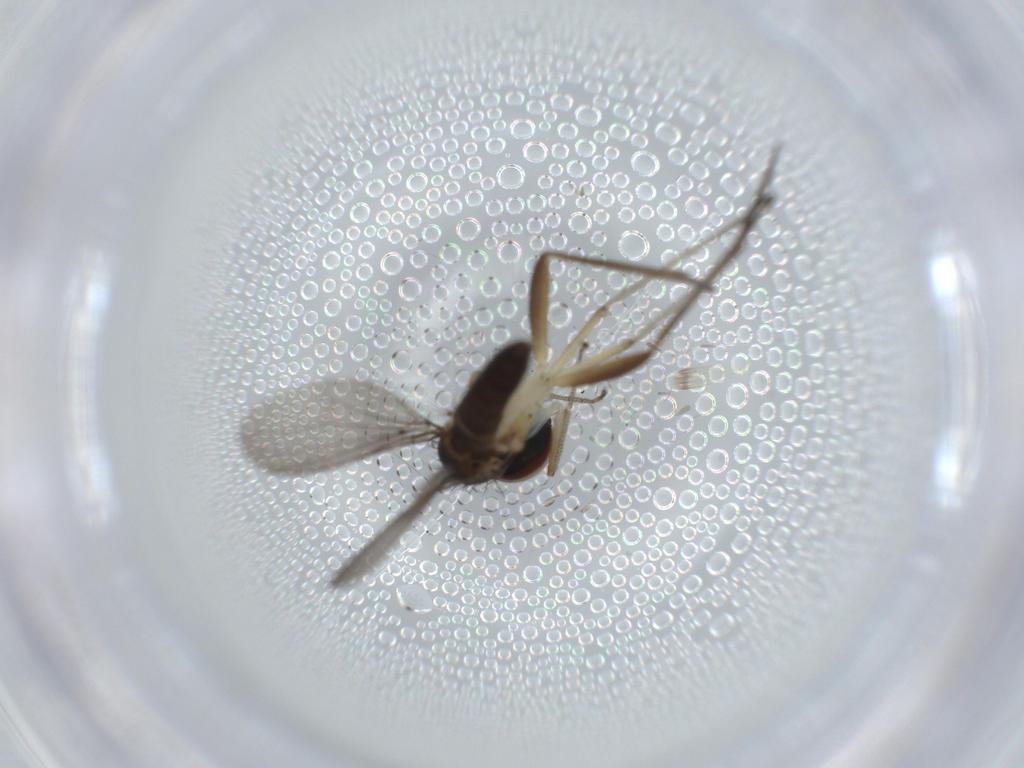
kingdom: Animalia
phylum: Arthropoda
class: Insecta
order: Diptera
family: Dolichopodidae
